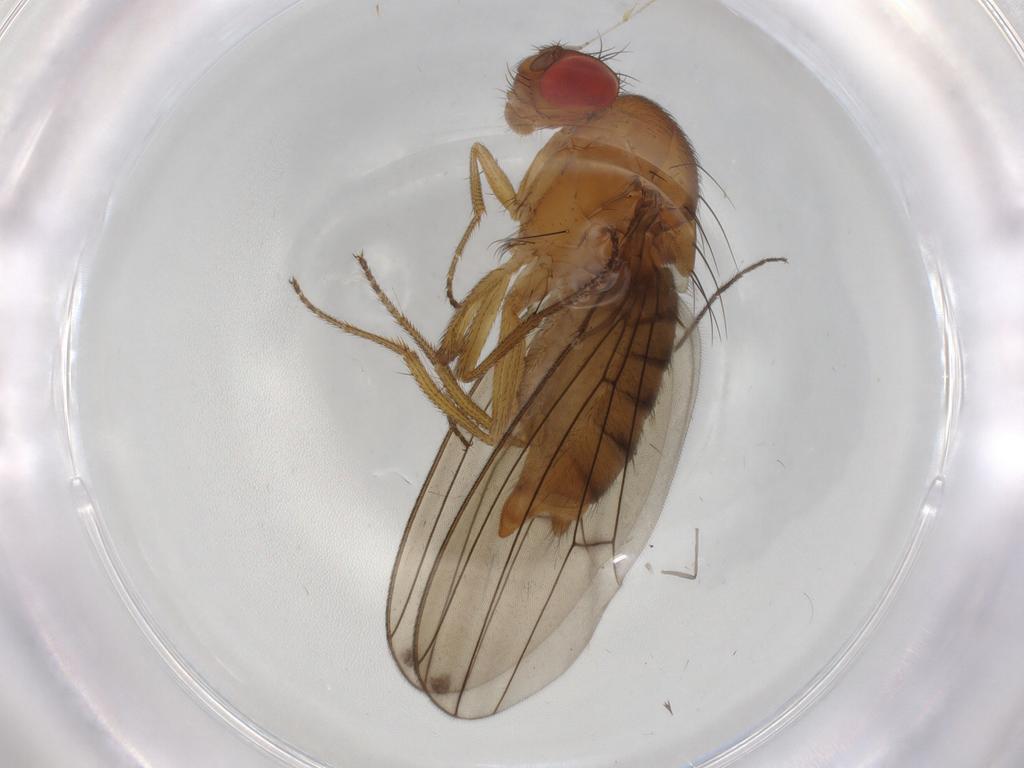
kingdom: Animalia
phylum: Arthropoda
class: Insecta
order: Diptera
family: Drosophilidae
